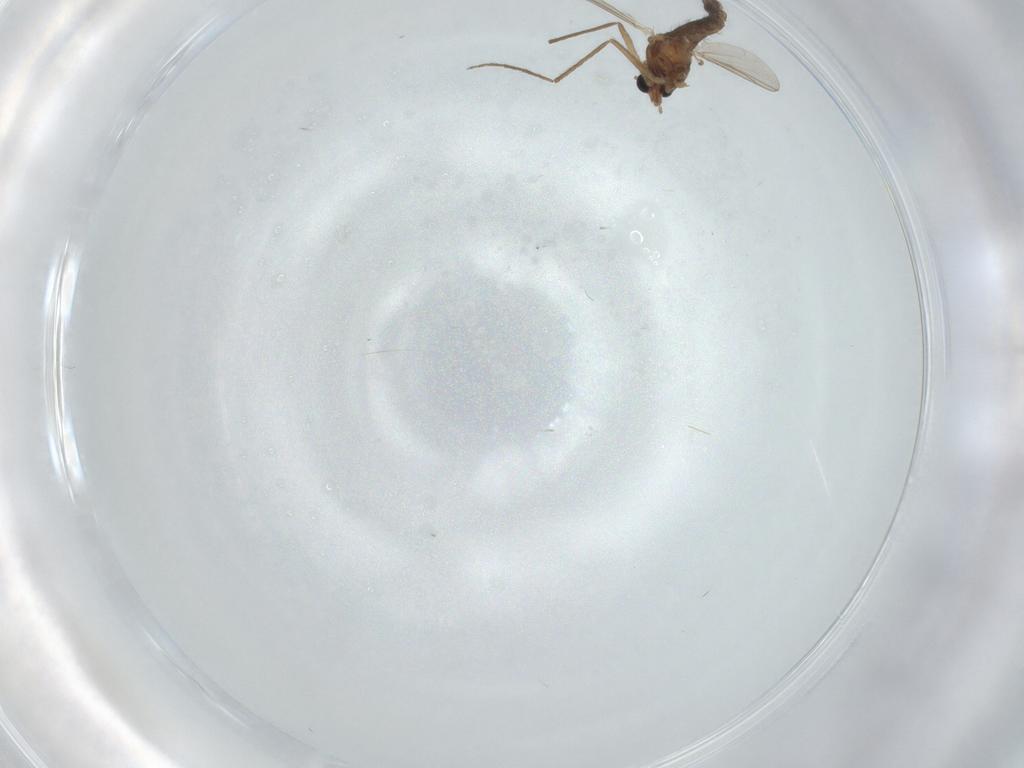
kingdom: Animalia
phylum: Arthropoda
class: Insecta
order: Diptera
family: Chironomidae
